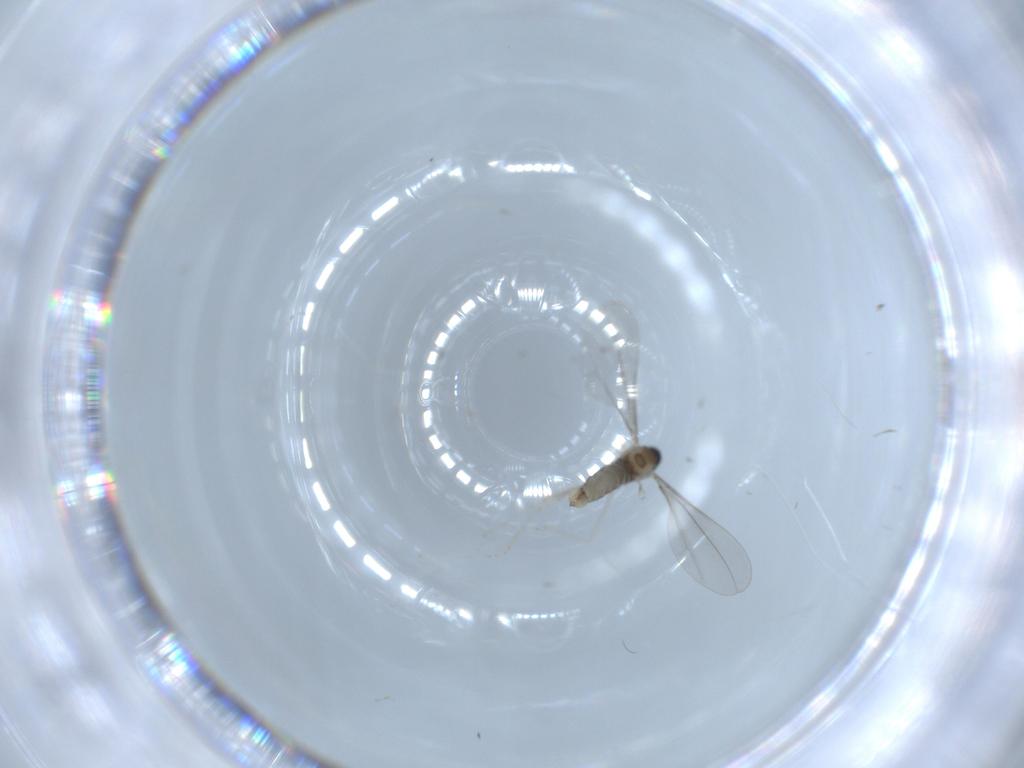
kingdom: Animalia
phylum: Arthropoda
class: Insecta
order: Diptera
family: Cecidomyiidae
